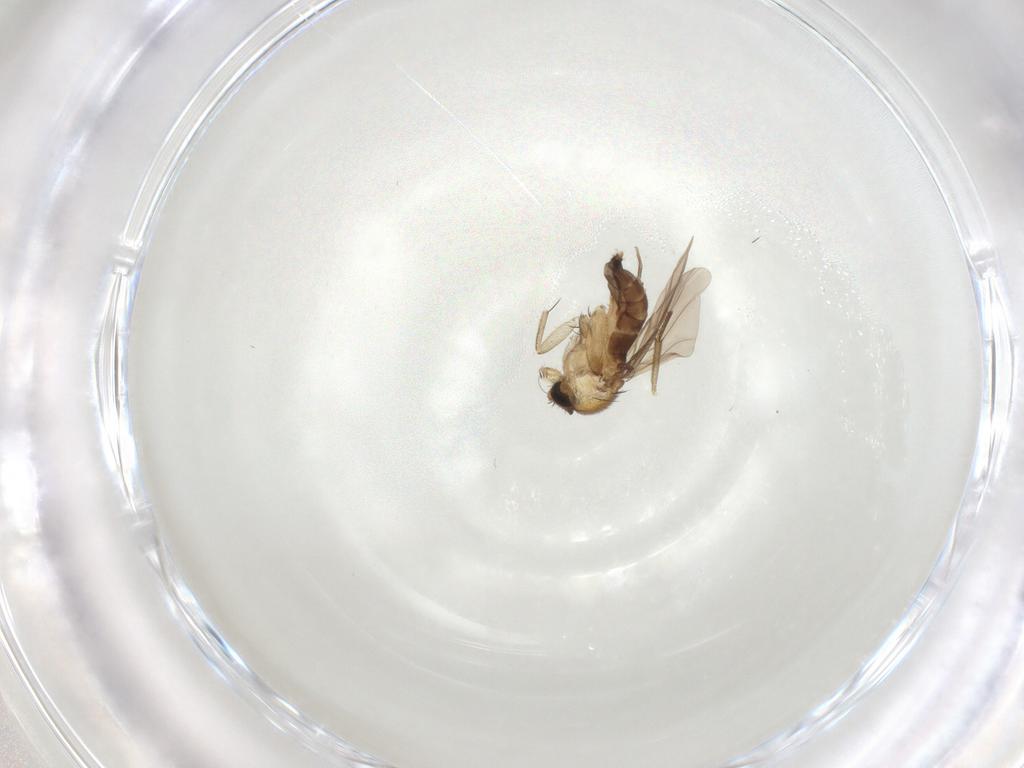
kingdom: Animalia
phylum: Arthropoda
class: Insecta
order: Diptera
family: Phoridae
